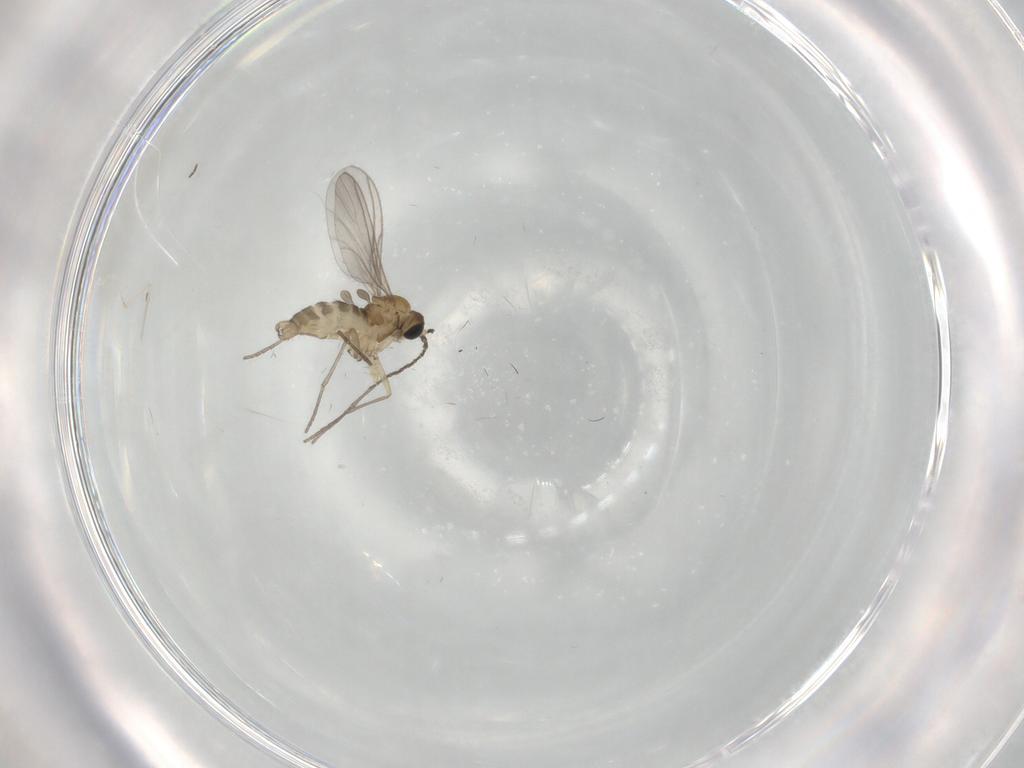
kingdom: Animalia
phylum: Arthropoda
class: Insecta
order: Diptera
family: Sciaridae
